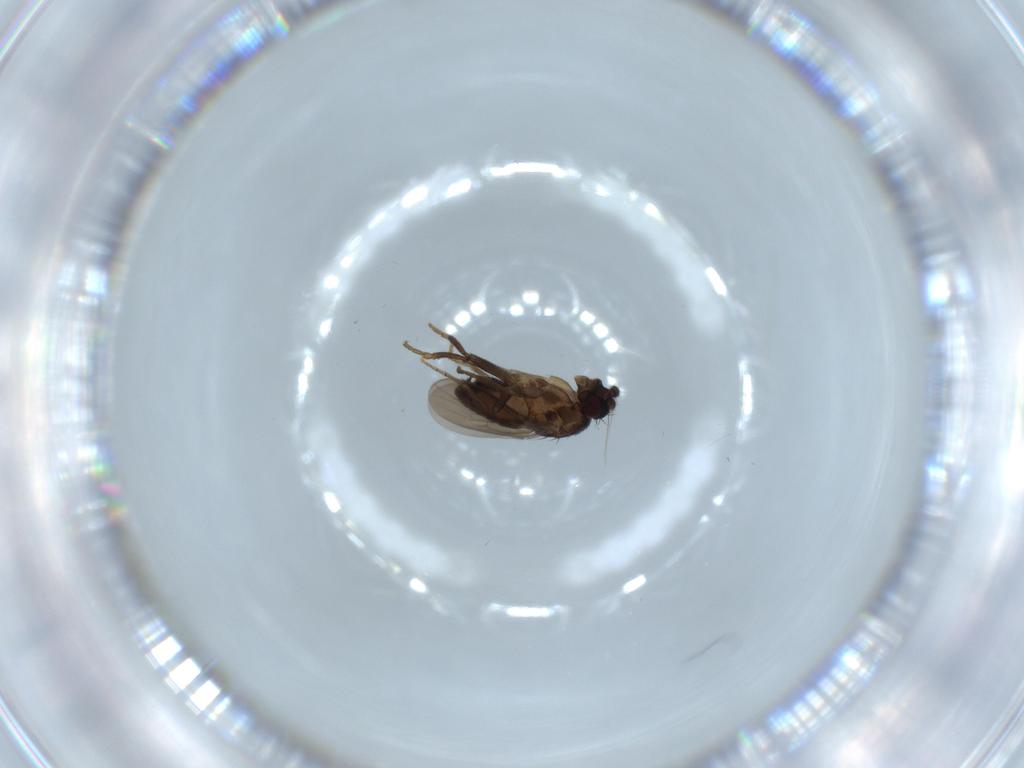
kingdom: Animalia
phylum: Arthropoda
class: Insecta
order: Diptera
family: Sphaeroceridae
